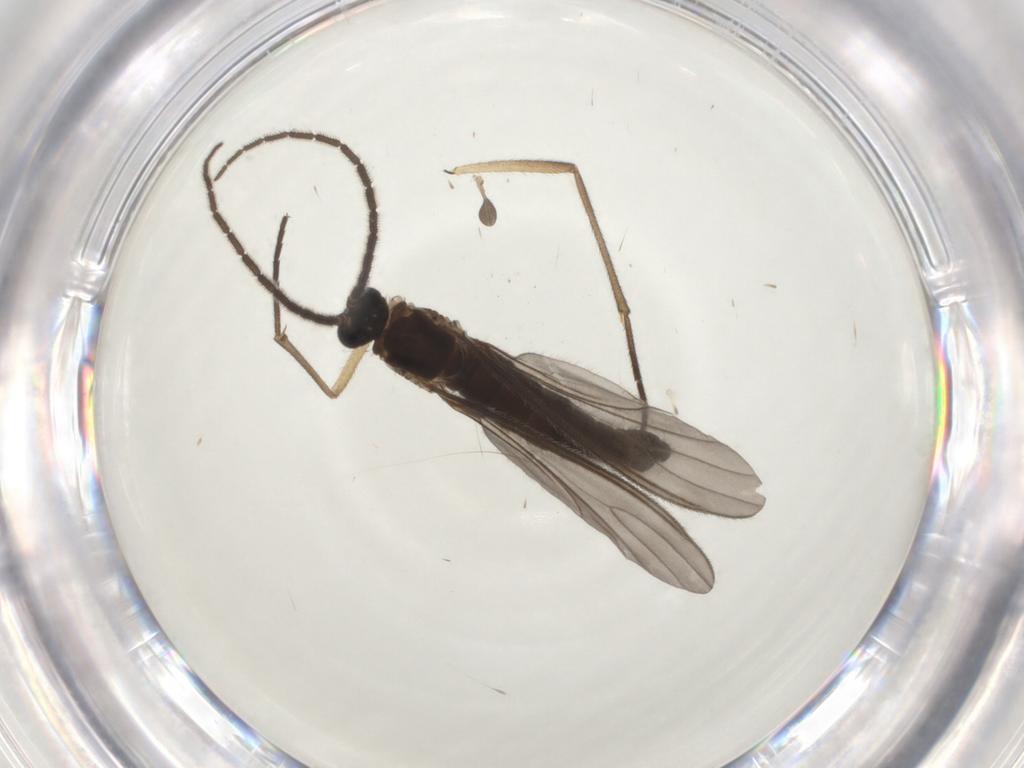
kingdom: Animalia
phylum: Arthropoda
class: Insecta
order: Diptera
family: Sciaridae
